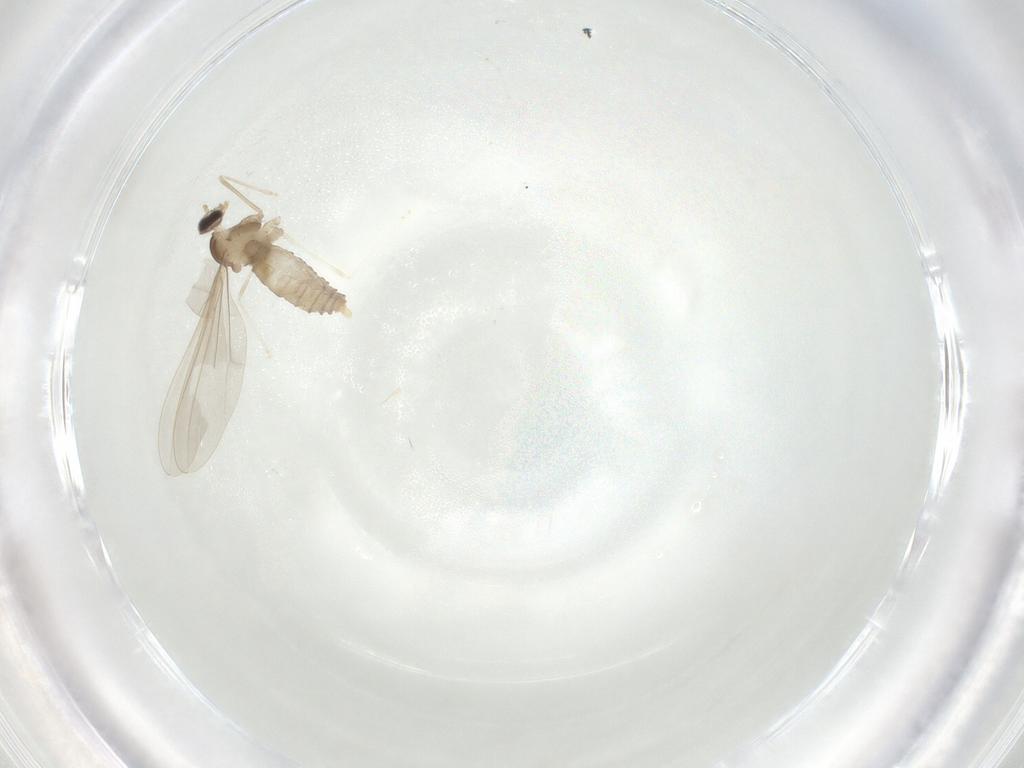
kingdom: Animalia
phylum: Arthropoda
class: Insecta
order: Diptera
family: Cecidomyiidae
